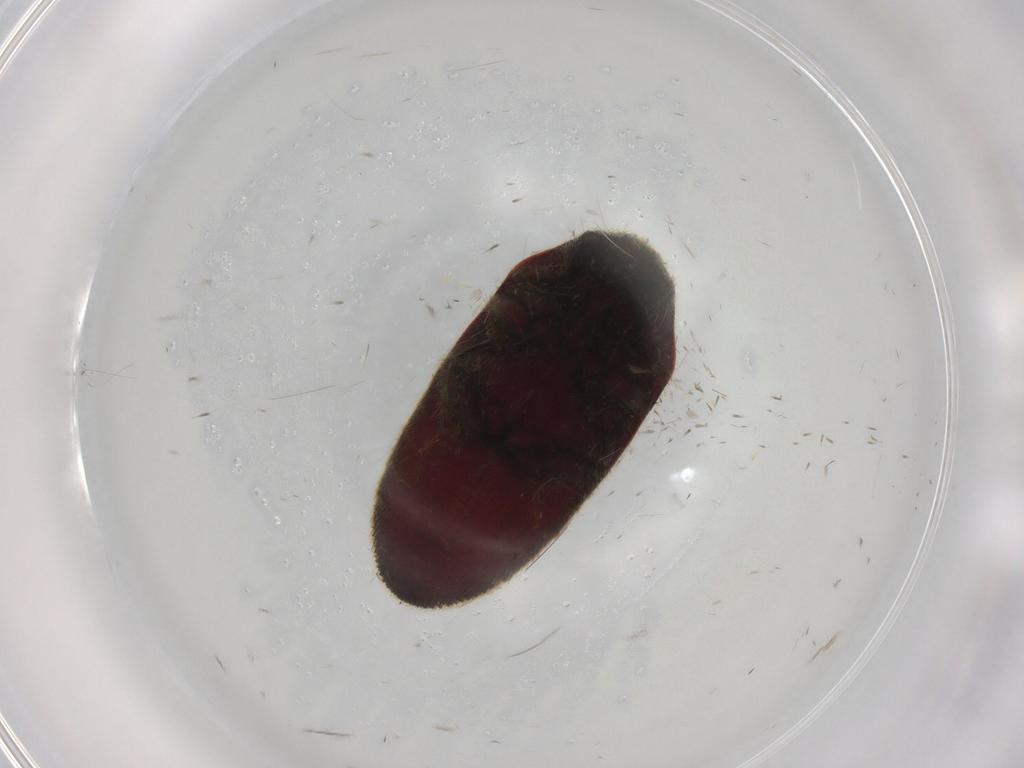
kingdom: Animalia
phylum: Arthropoda
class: Insecta
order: Coleoptera
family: Throscidae
